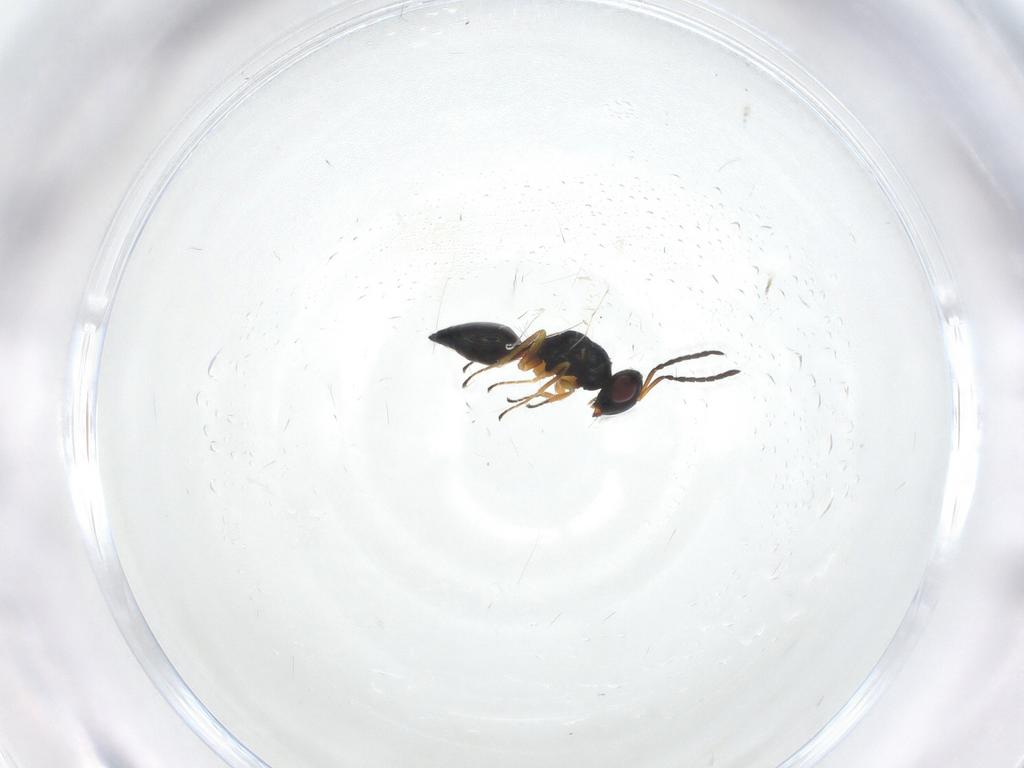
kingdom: Animalia
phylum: Arthropoda
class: Insecta
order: Hymenoptera
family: Pteromalidae
